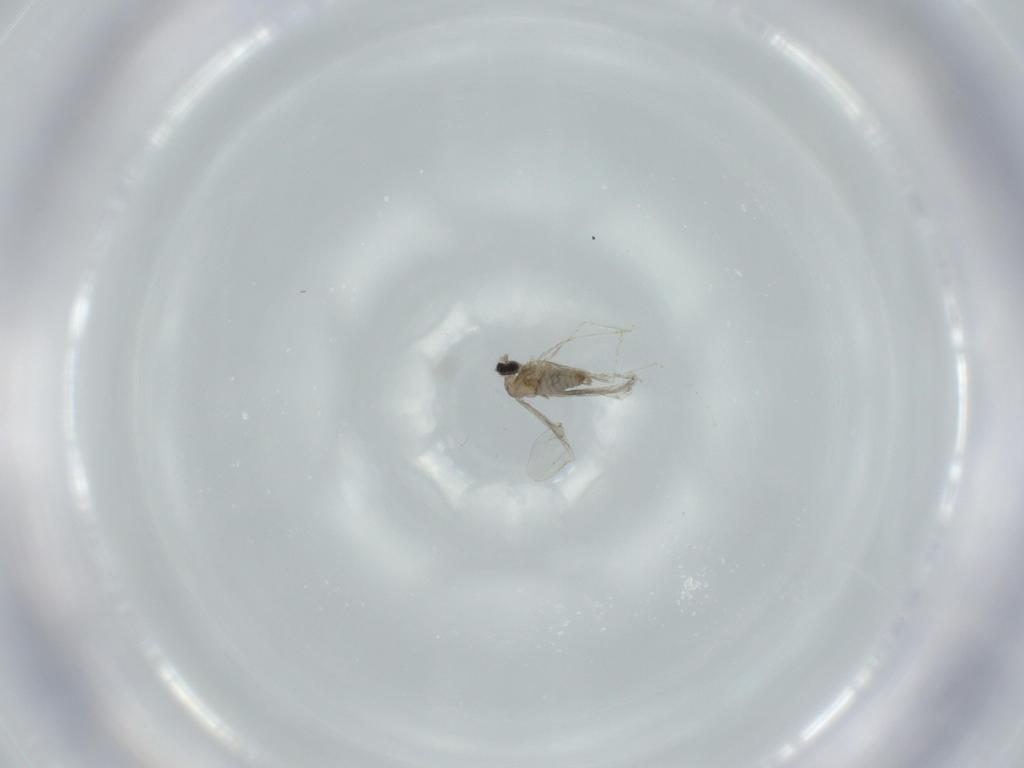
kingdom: Animalia
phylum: Arthropoda
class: Insecta
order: Diptera
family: Cecidomyiidae
